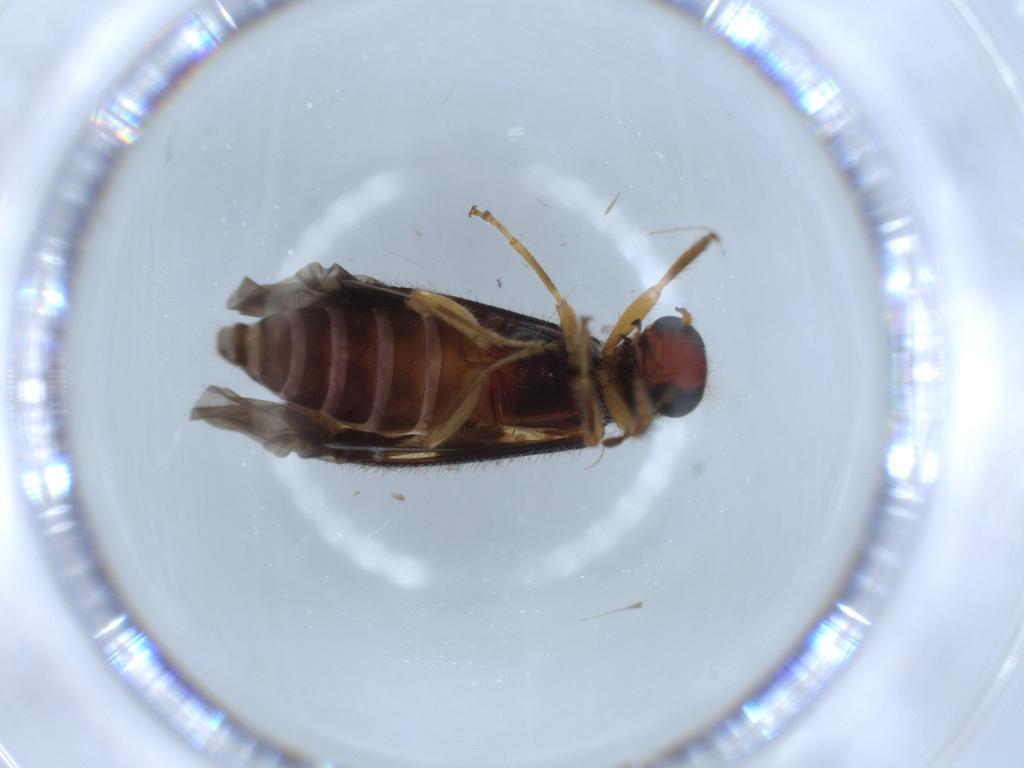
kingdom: Animalia
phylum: Arthropoda
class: Insecta
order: Coleoptera
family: Cleridae
